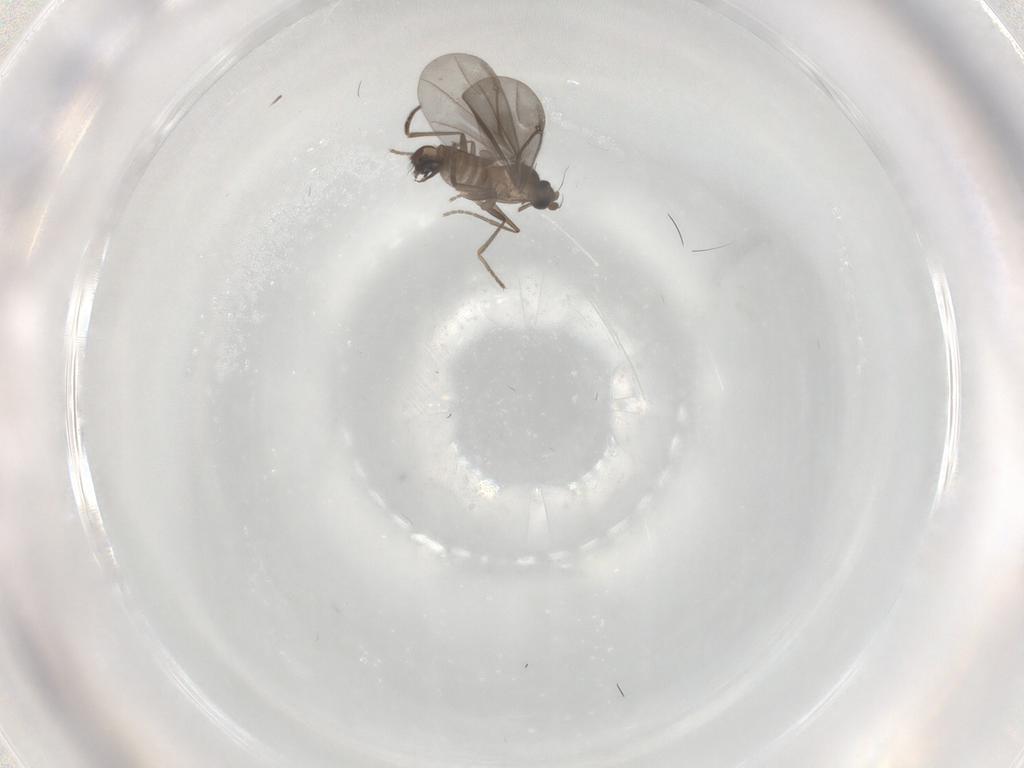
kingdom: Animalia
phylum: Arthropoda
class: Insecta
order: Diptera
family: Phoridae
